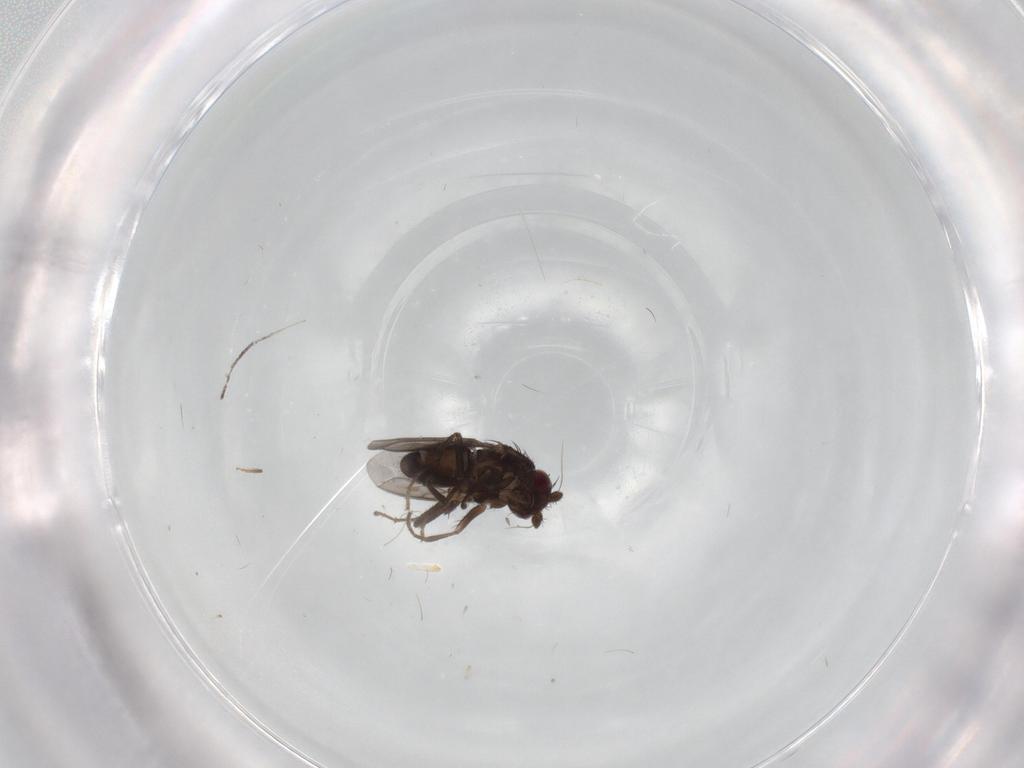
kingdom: Animalia
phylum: Arthropoda
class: Insecta
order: Diptera
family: Sphaeroceridae
